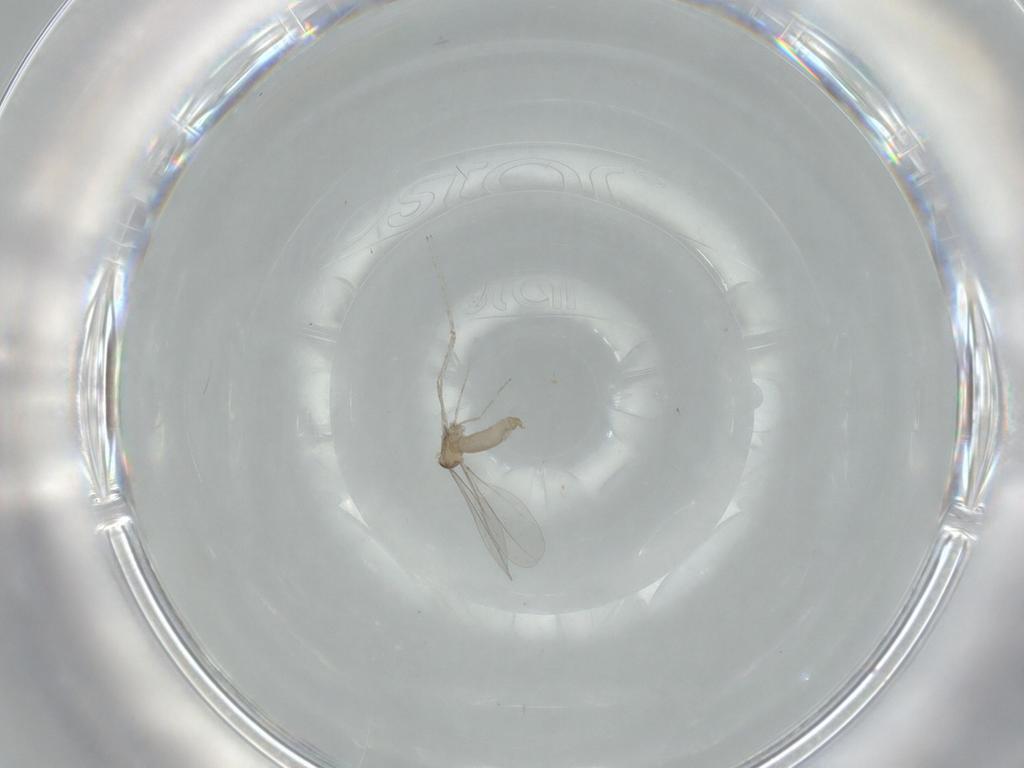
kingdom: Animalia
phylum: Arthropoda
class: Insecta
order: Diptera
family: Cecidomyiidae
